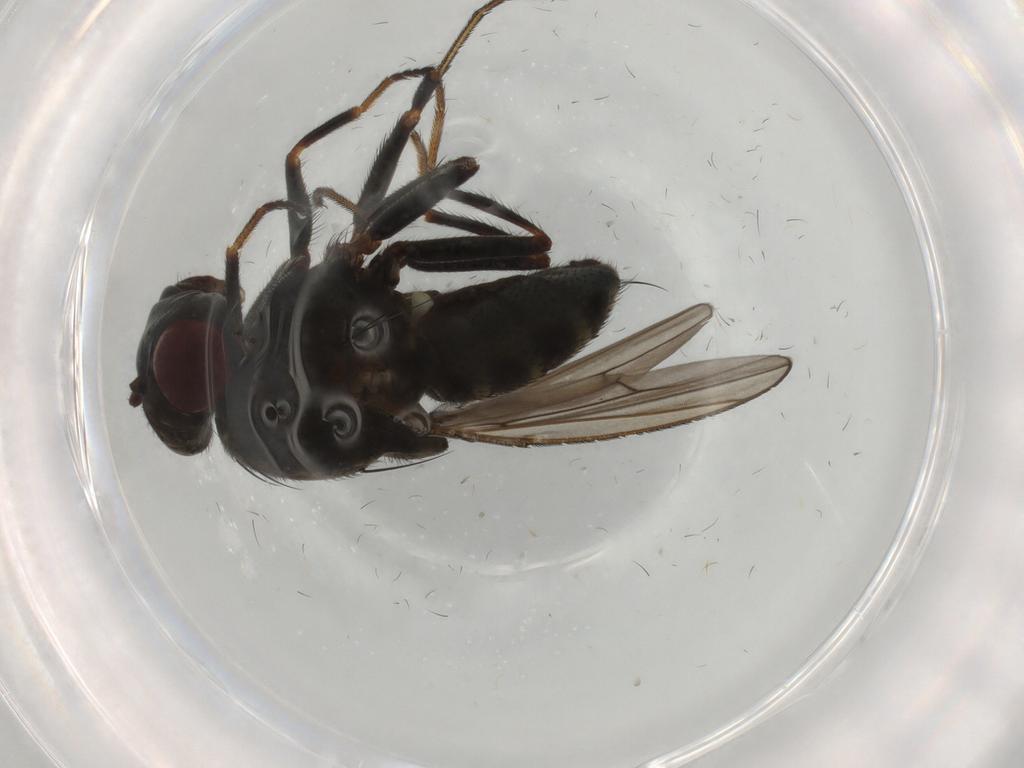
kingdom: Animalia
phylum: Arthropoda
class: Insecta
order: Diptera
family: Ephydridae
